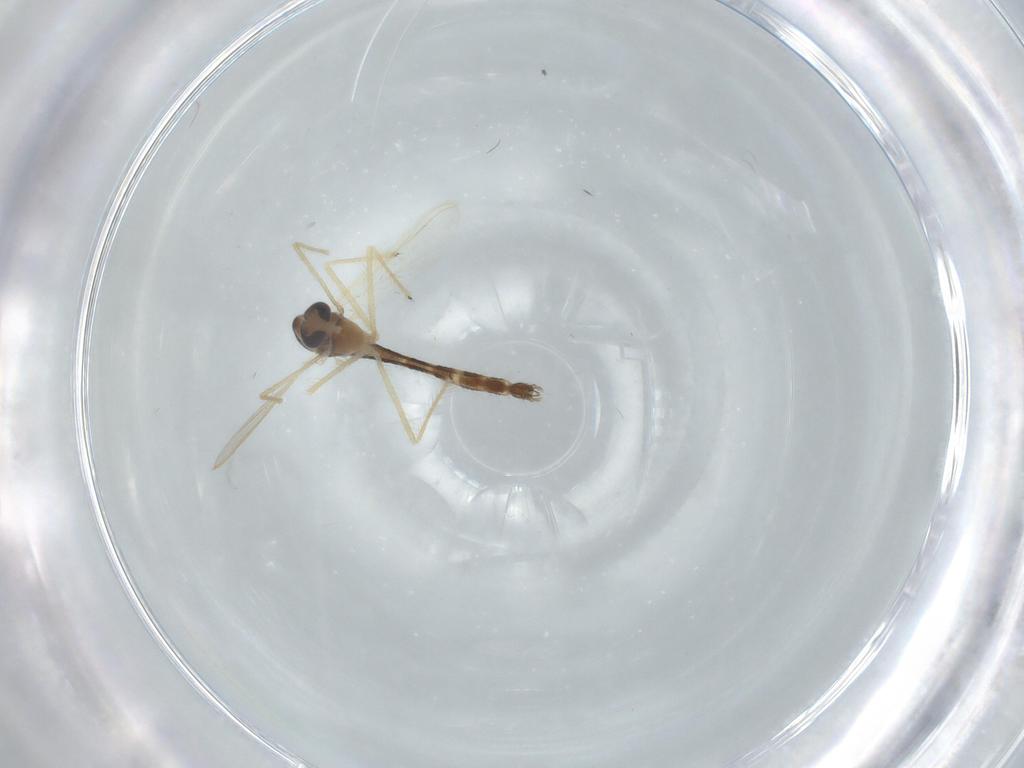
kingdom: Animalia
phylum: Arthropoda
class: Insecta
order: Diptera
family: Chironomidae
